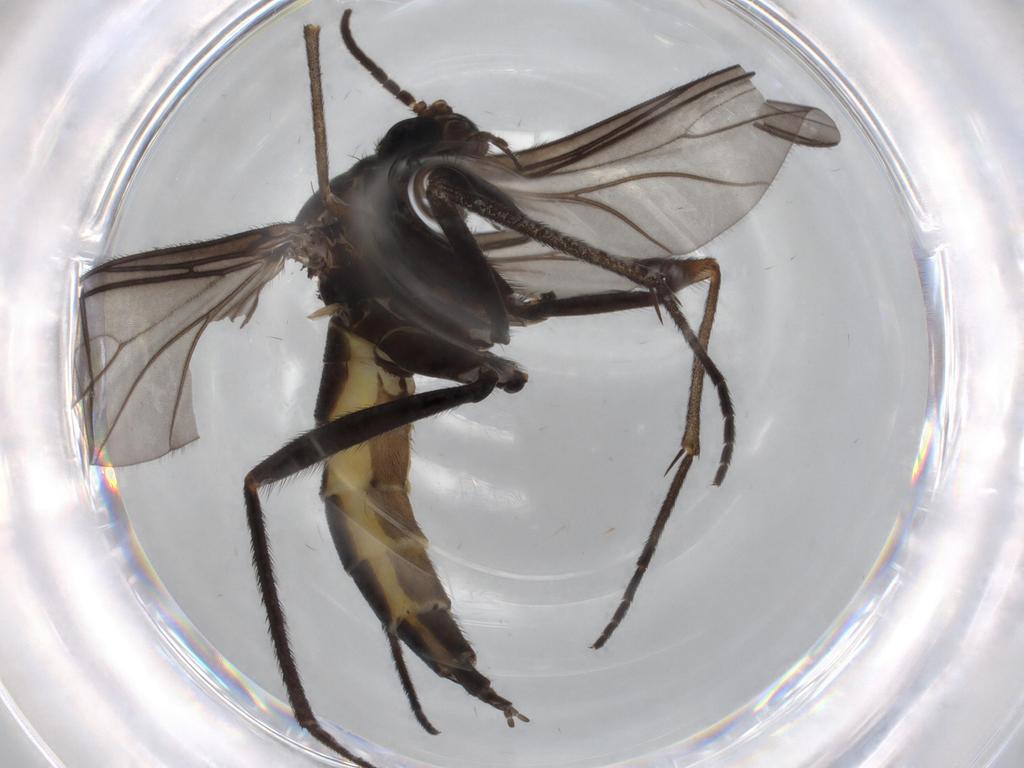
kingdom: Animalia
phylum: Arthropoda
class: Insecta
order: Diptera
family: Sciaridae
